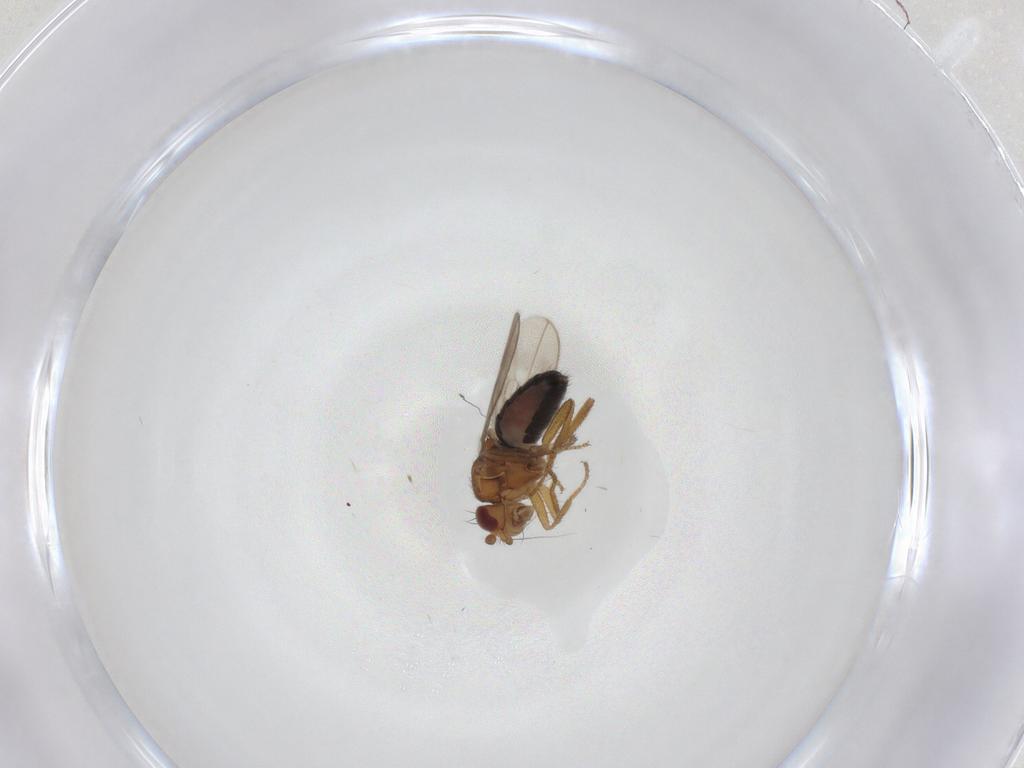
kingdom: Animalia
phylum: Arthropoda
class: Insecta
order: Diptera
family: Sphaeroceridae
